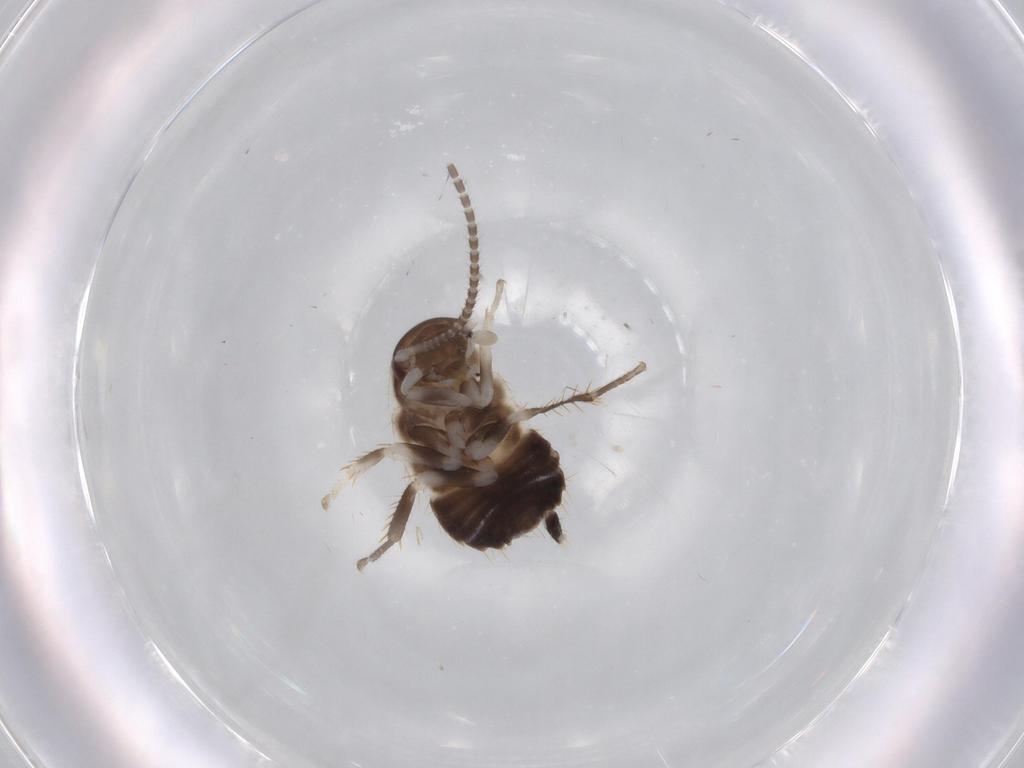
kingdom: Animalia
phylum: Arthropoda
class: Insecta
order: Blattodea
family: Ectobiidae
